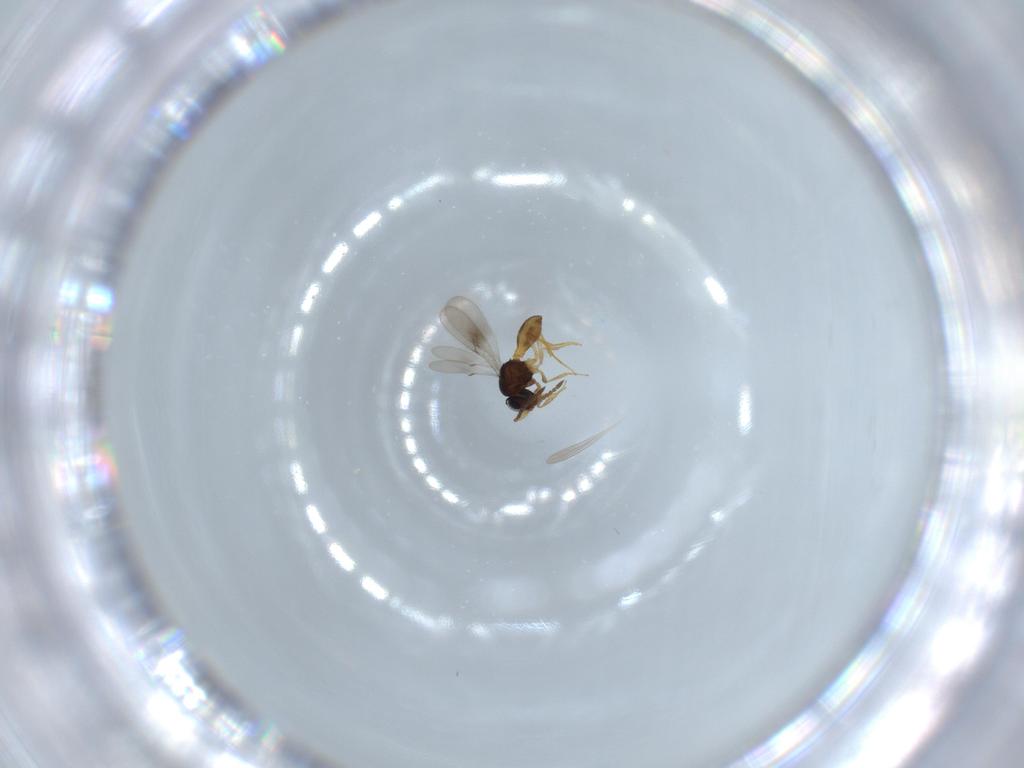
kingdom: Animalia
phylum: Arthropoda
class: Insecta
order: Hymenoptera
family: Scelionidae
